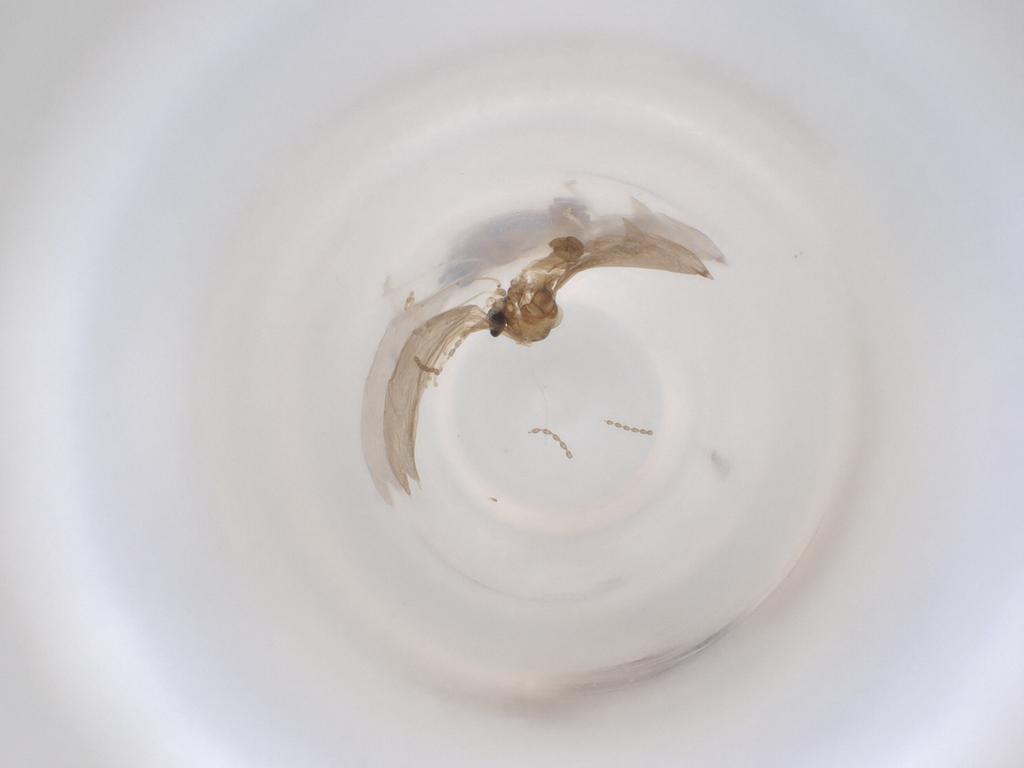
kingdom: Animalia
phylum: Arthropoda
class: Insecta
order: Diptera
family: Cecidomyiidae
